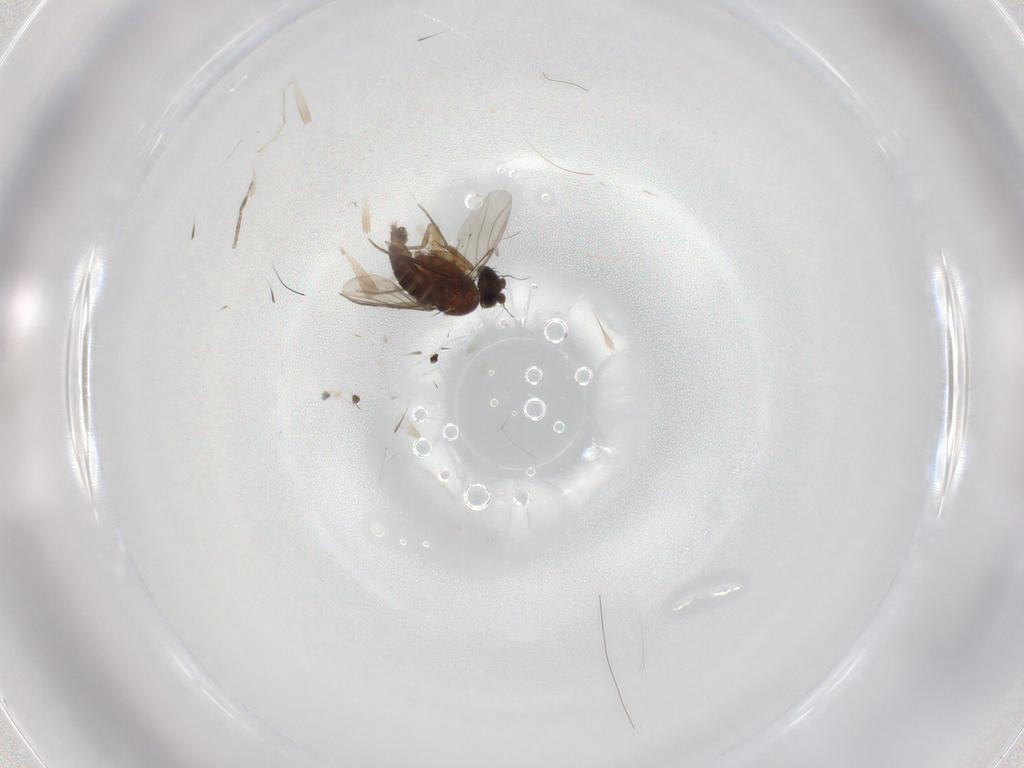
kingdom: Animalia
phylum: Arthropoda
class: Insecta
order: Diptera
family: Cecidomyiidae
